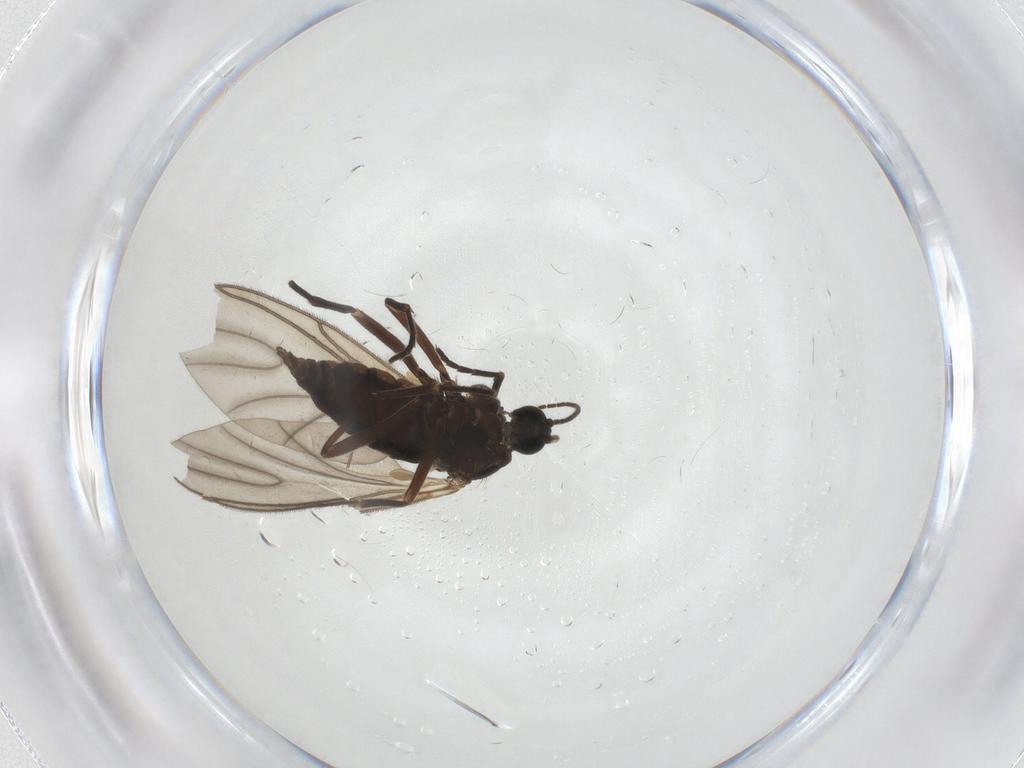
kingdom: Animalia
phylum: Arthropoda
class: Insecta
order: Diptera
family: Sciaridae
